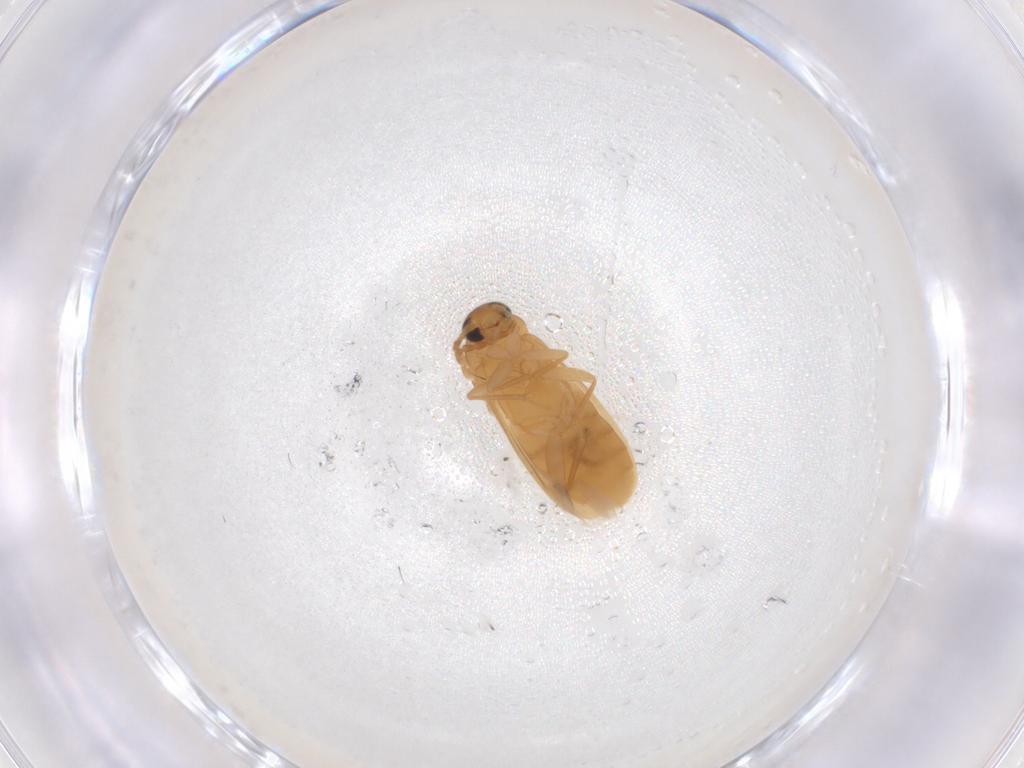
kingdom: Animalia
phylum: Arthropoda
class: Insecta
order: Coleoptera
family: Scraptiidae
